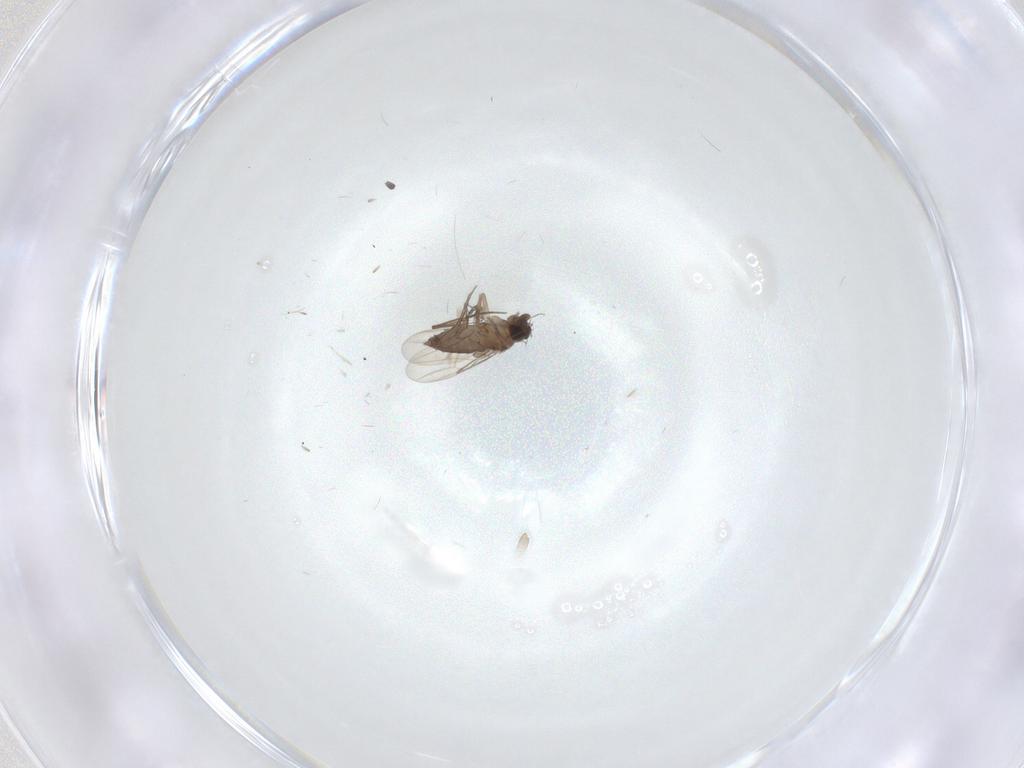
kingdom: Animalia
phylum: Arthropoda
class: Insecta
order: Diptera
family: Phoridae
